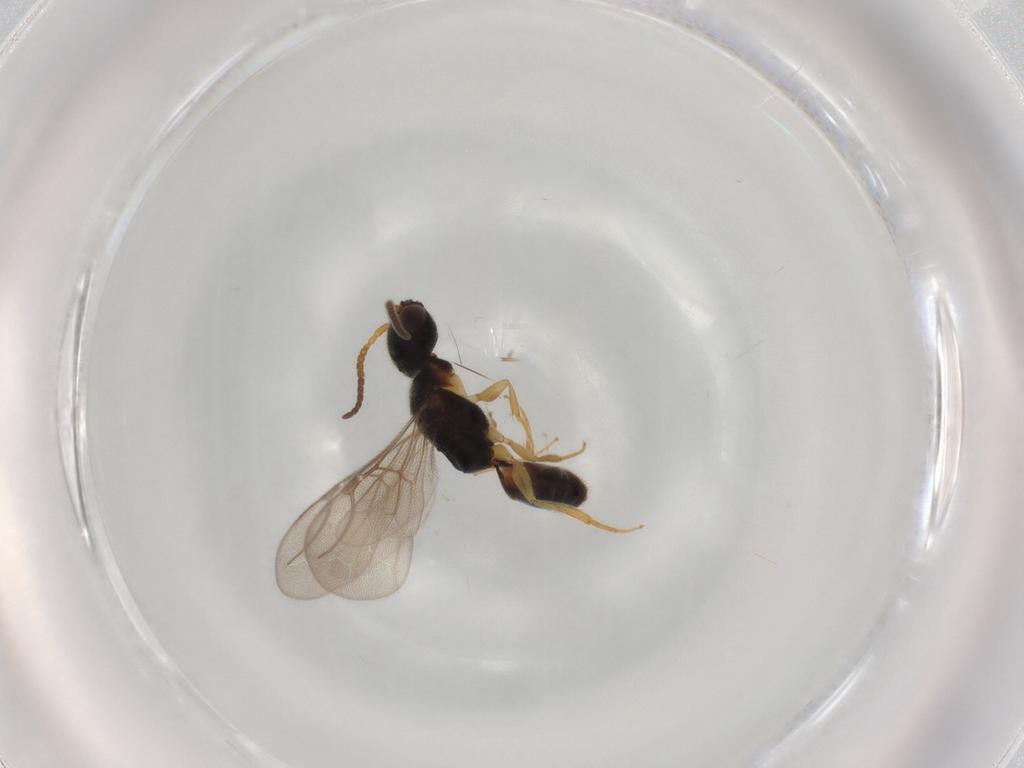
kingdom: Animalia
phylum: Arthropoda
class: Insecta
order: Hymenoptera
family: Bethylidae
